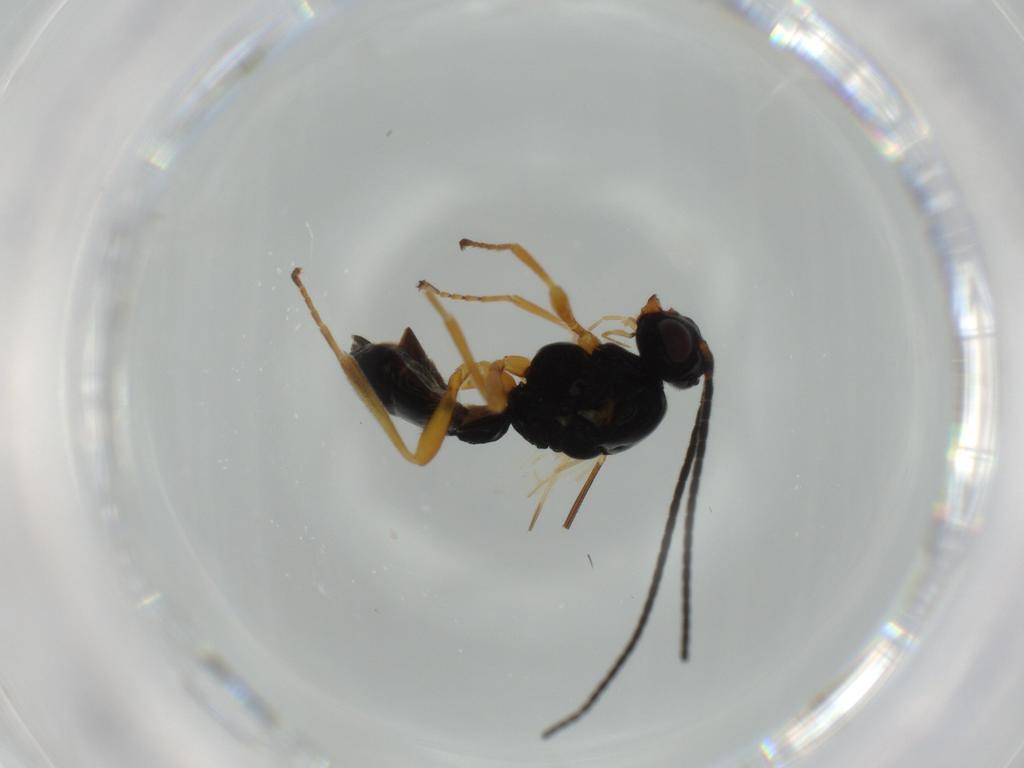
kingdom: Animalia
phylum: Arthropoda
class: Insecta
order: Hymenoptera
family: Braconidae
